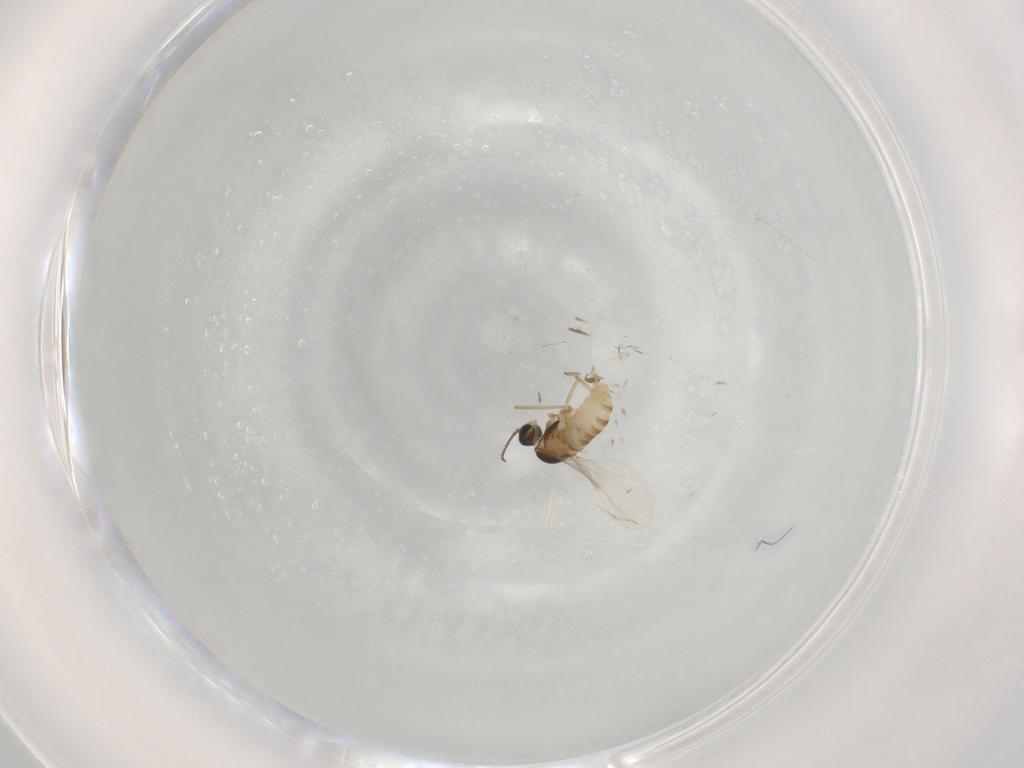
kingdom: Animalia
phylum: Arthropoda
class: Insecta
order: Diptera
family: Cecidomyiidae
